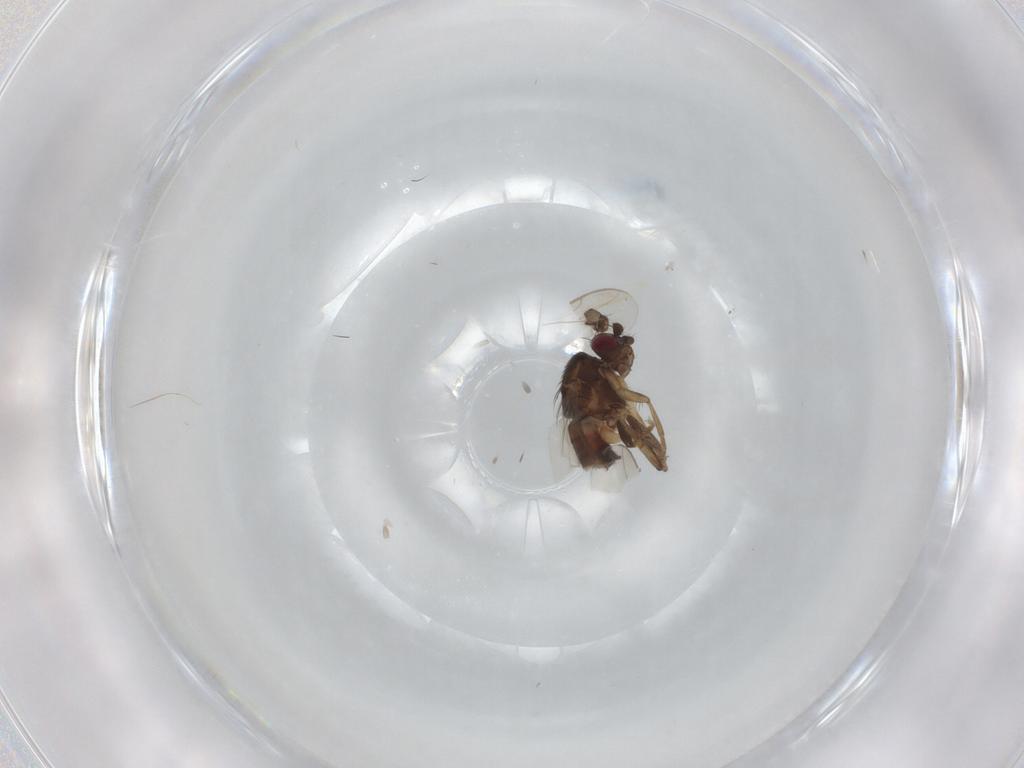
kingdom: Animalia
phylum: Arthropoda
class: Insecta
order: Diptera
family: Sphaeroceridae
